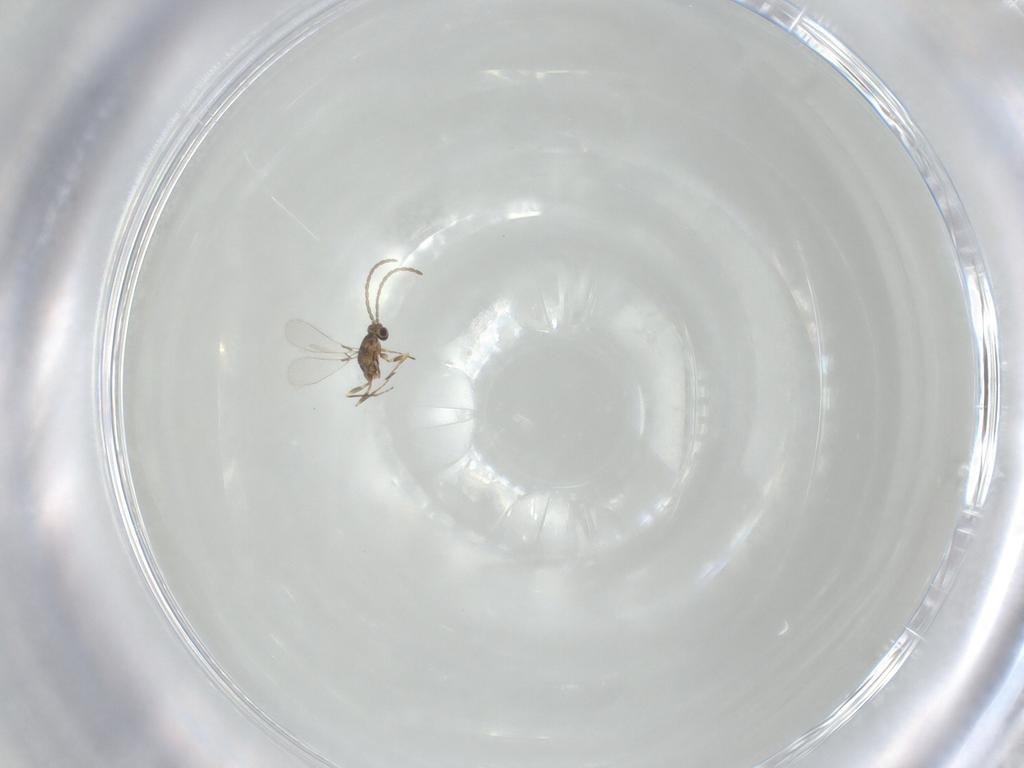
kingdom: Animalia
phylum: Arthropoda
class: Insecta
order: Hymenoptera
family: Mymaridae
